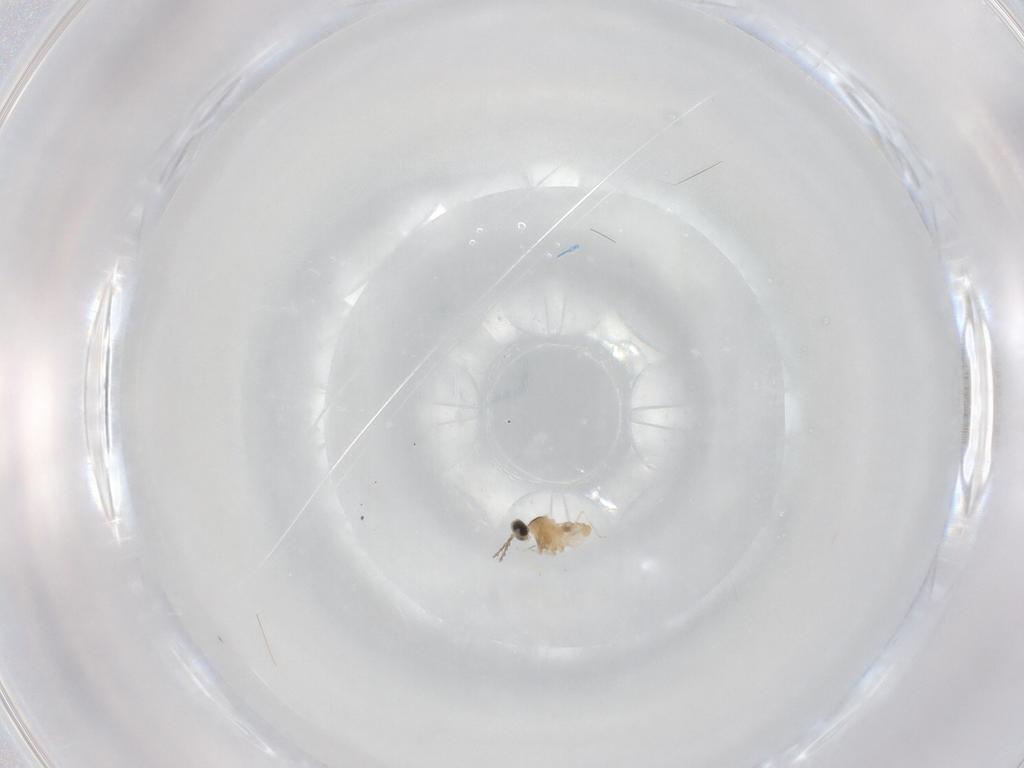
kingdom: Animalia
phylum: Arthropoda
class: Insecta
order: Diptera
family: Cecidomyiidae
